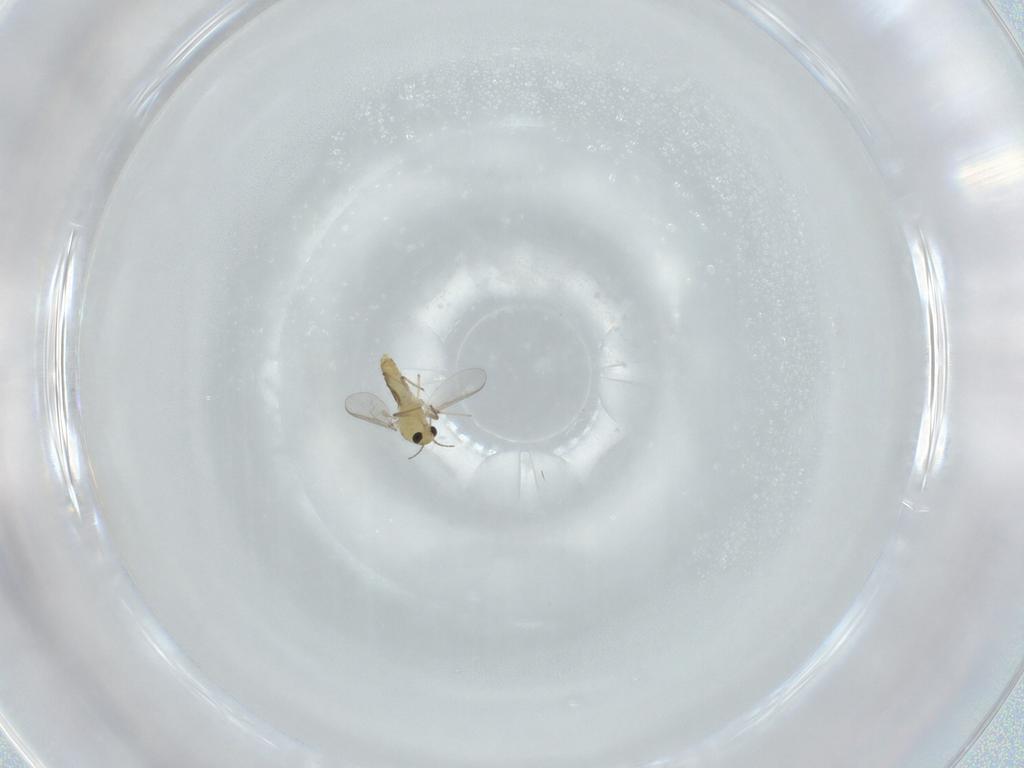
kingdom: Animalia
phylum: Arthropoda
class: Insecta
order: Diptera
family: Chironomidae
